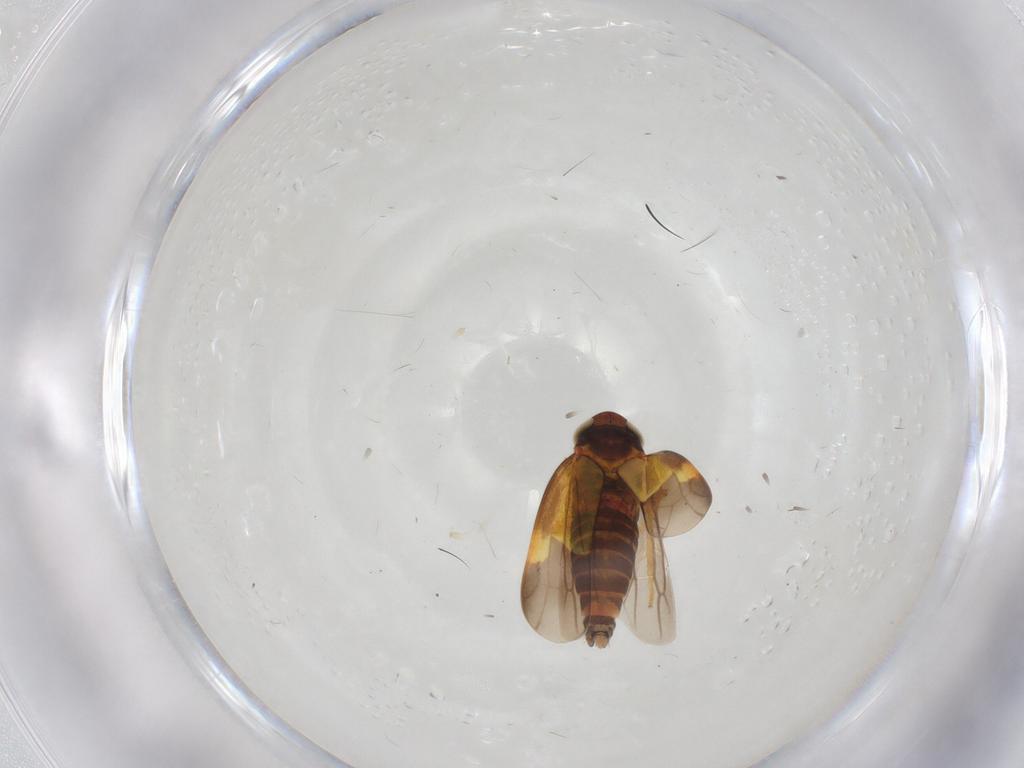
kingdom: Animalia
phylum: Arthropoda
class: Insecta
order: Hemiptera
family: Cicadellidae
